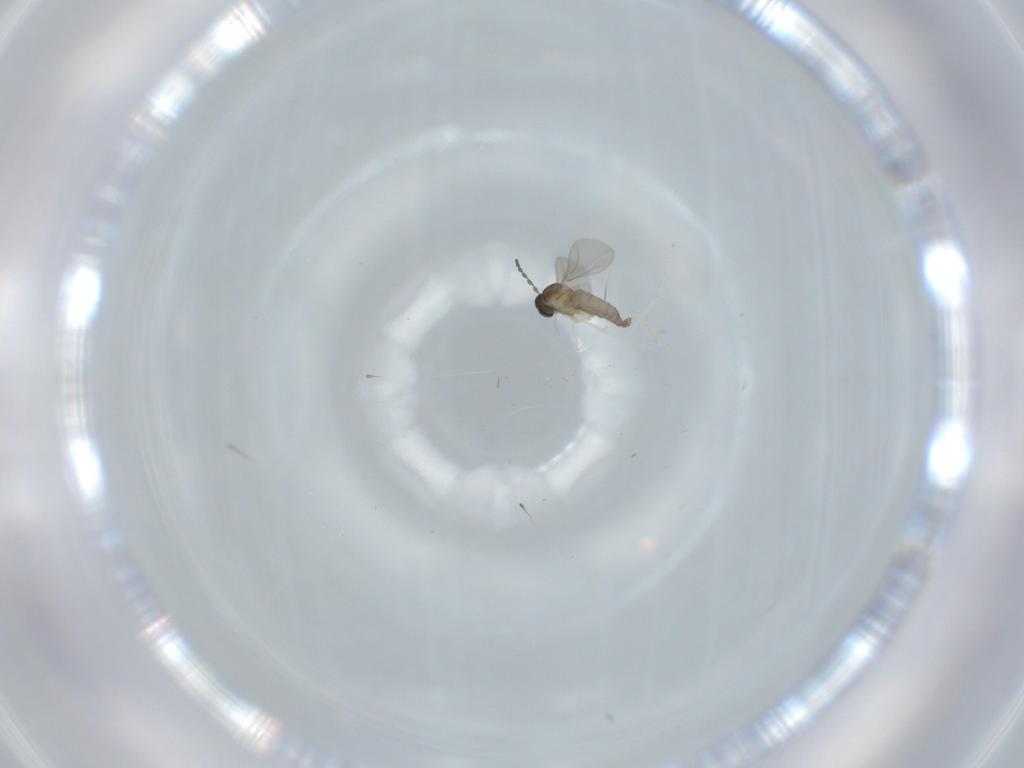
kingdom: Animalia
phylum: Arthropoda
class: Insecta
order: Diptera
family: Cecidomyiidae
